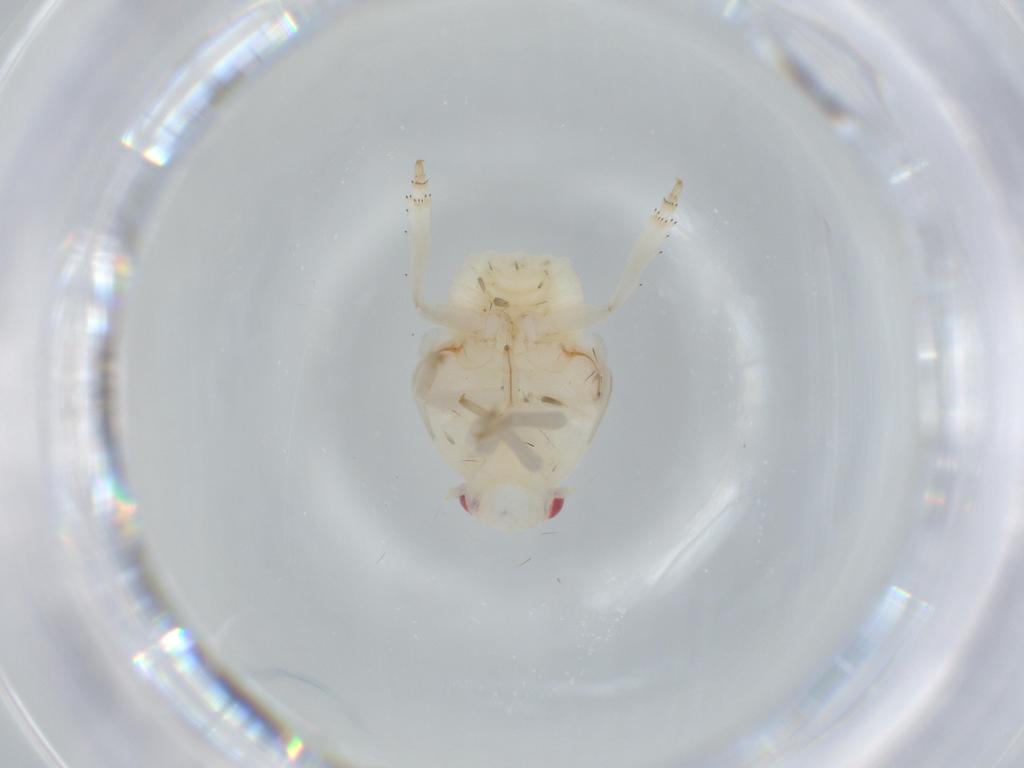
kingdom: Animalia
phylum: Arthropoda
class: Insecta
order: Hemiptera
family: Flatidae
